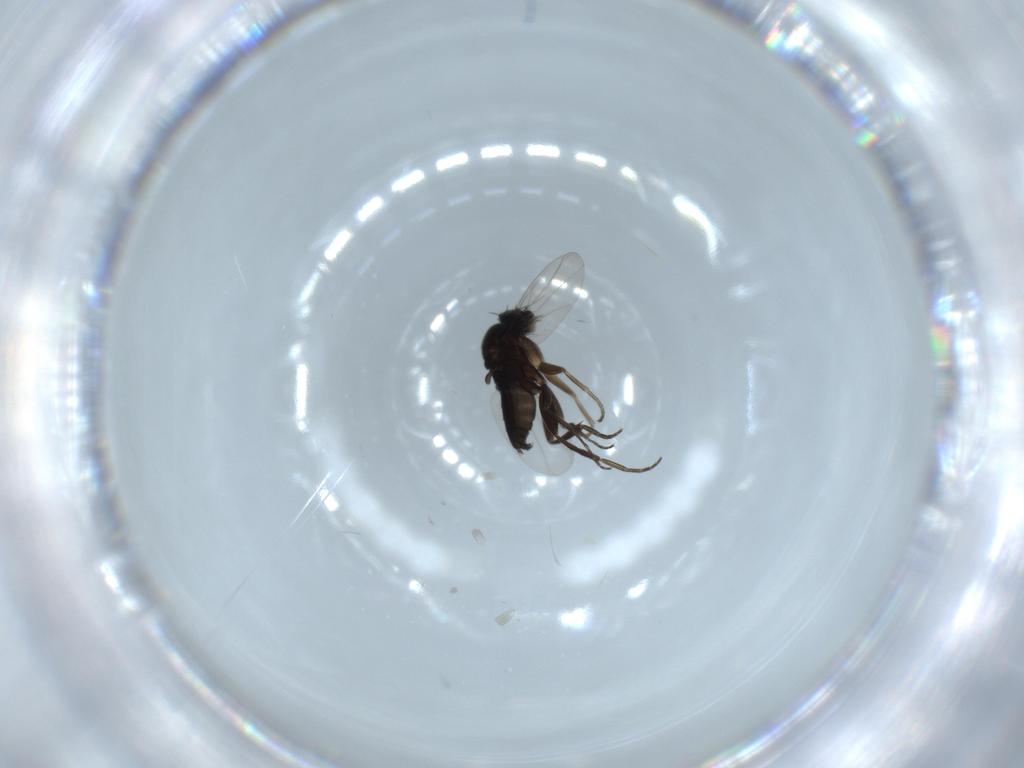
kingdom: Animalia
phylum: Arthropoda
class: Insecta
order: Diptera
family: Phoridae
